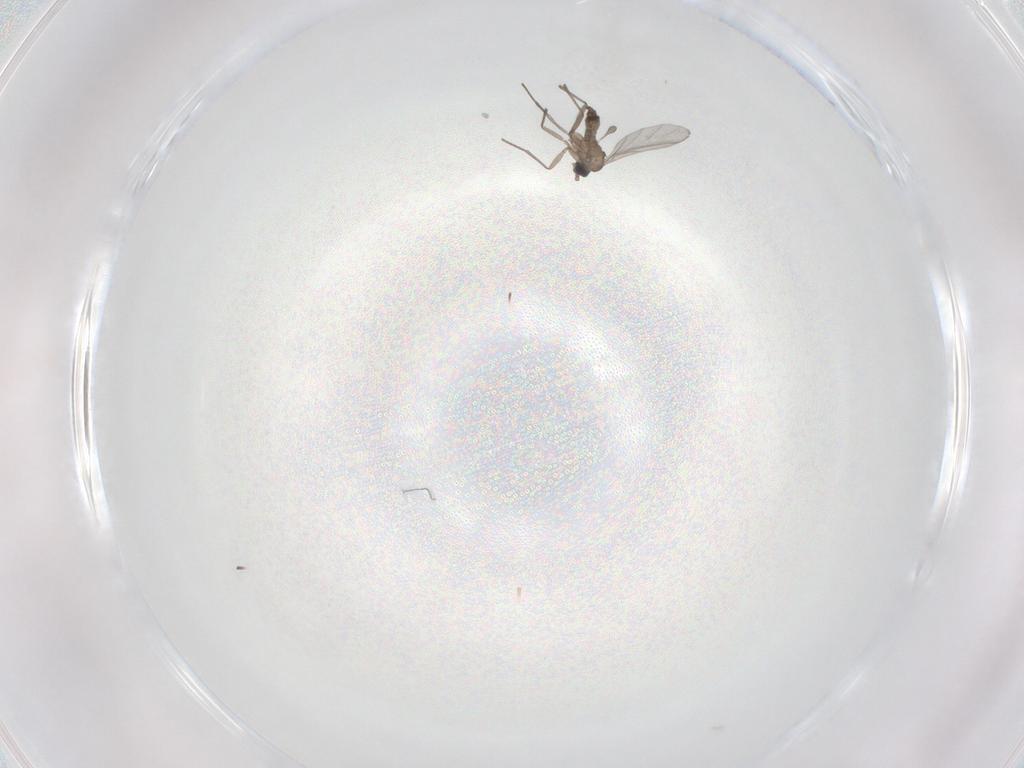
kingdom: Animalia
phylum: Arthropoda
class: Insecta
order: Diptera
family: Sciaridae
